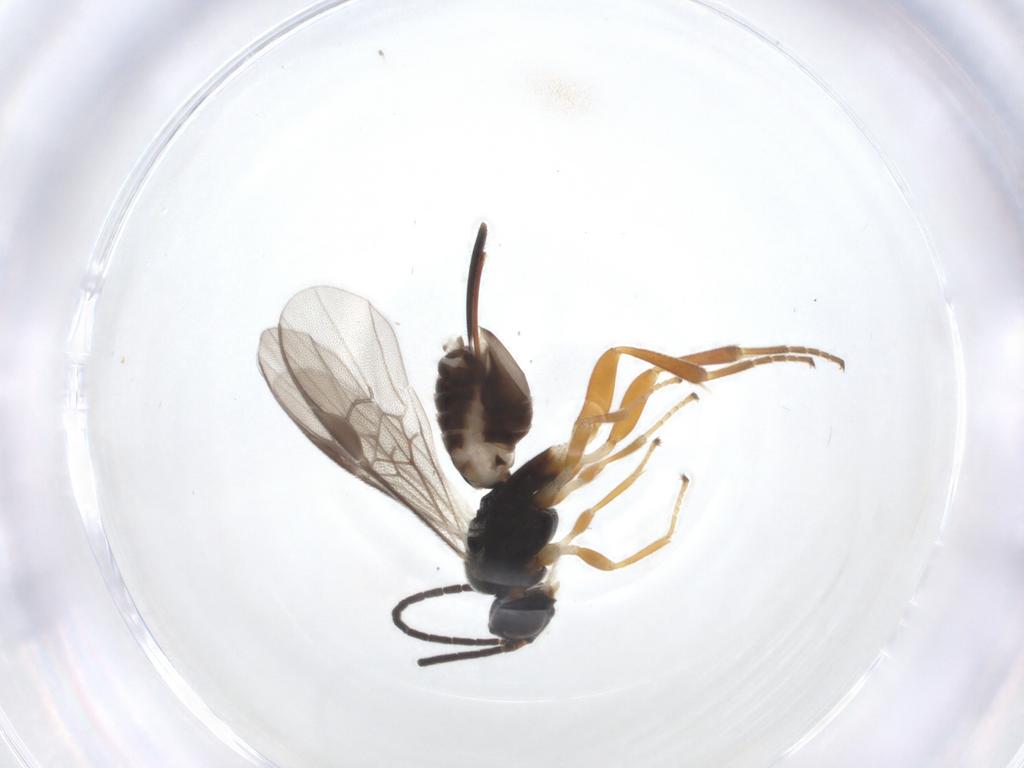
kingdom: Animalia
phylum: Arthropoda
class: Insecta
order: Hymenoptera
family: Braconidae
